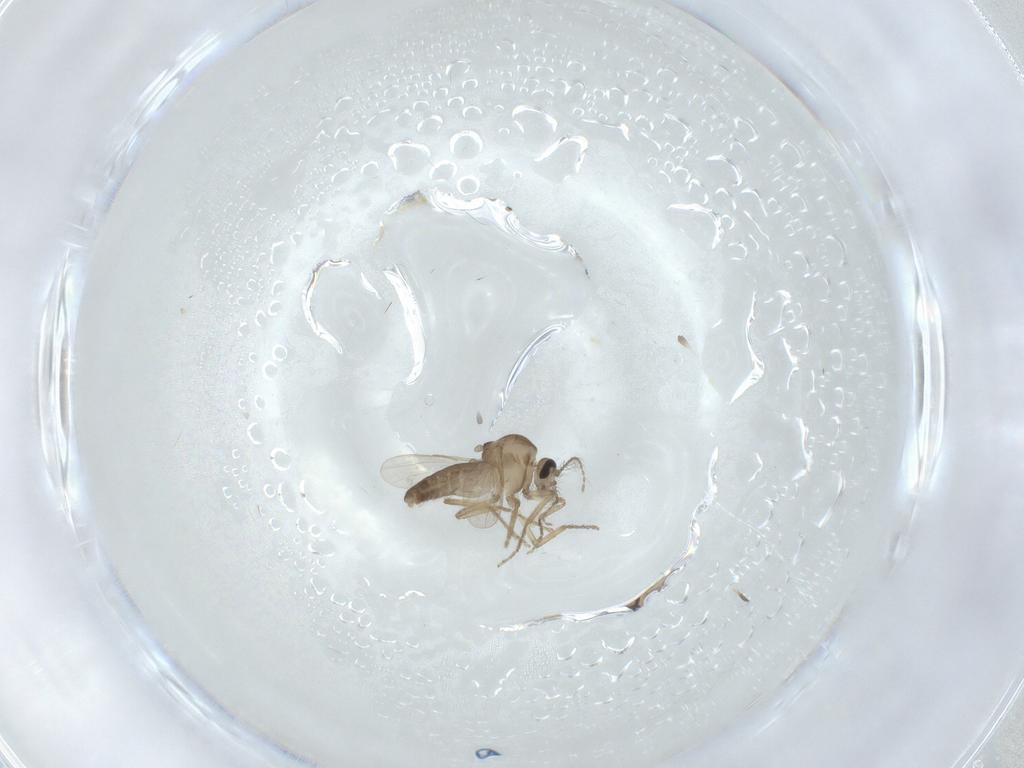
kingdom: Animalia
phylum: Arthropoda
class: Insecta
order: Diptera
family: Ceratopogonidae
